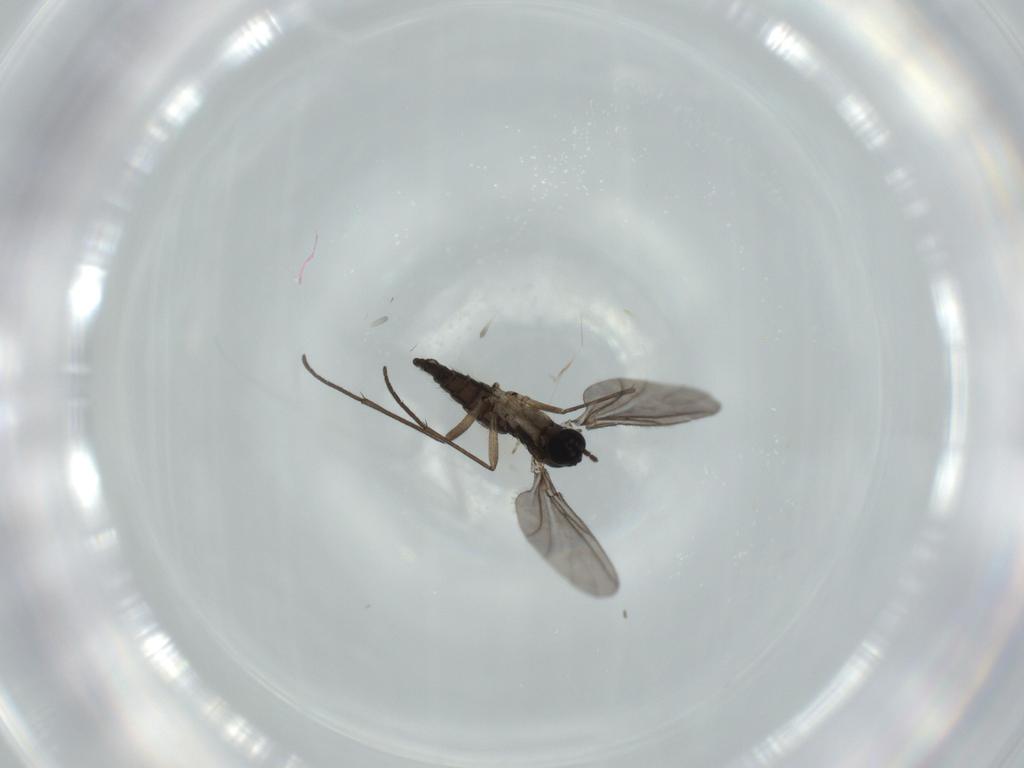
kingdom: Animalia
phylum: Arthropoda
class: Insecta
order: Diptera
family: Sciaridae
